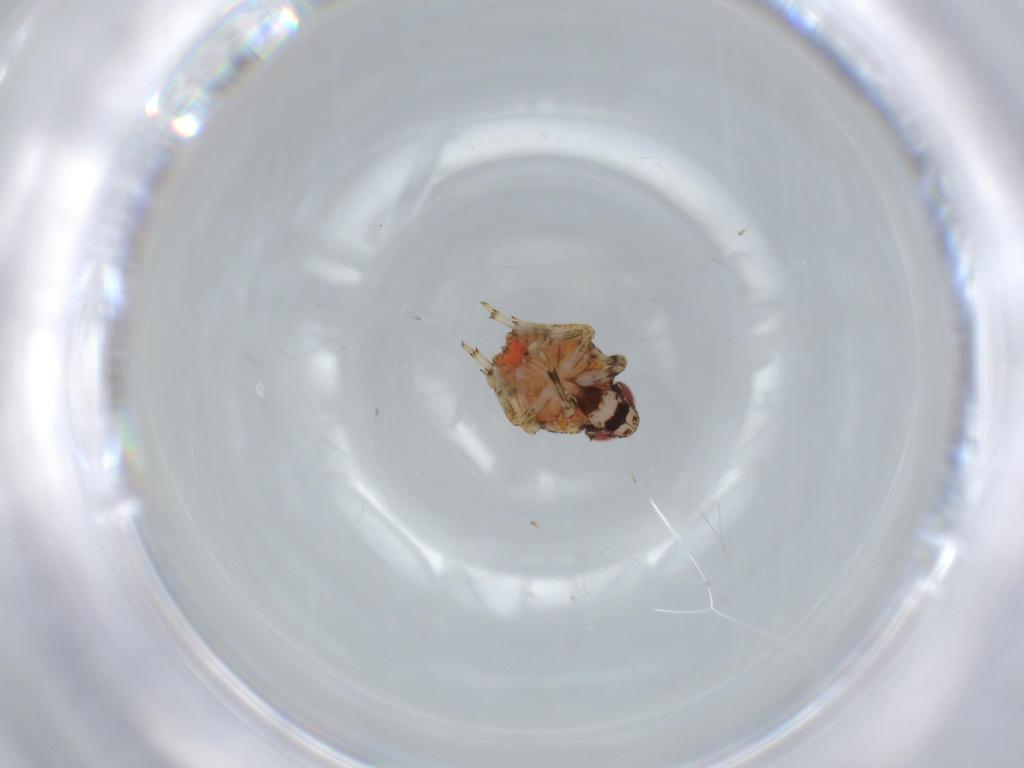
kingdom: Animalia
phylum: Arthropoda
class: Insecta
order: Hemiptera
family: Issidae
